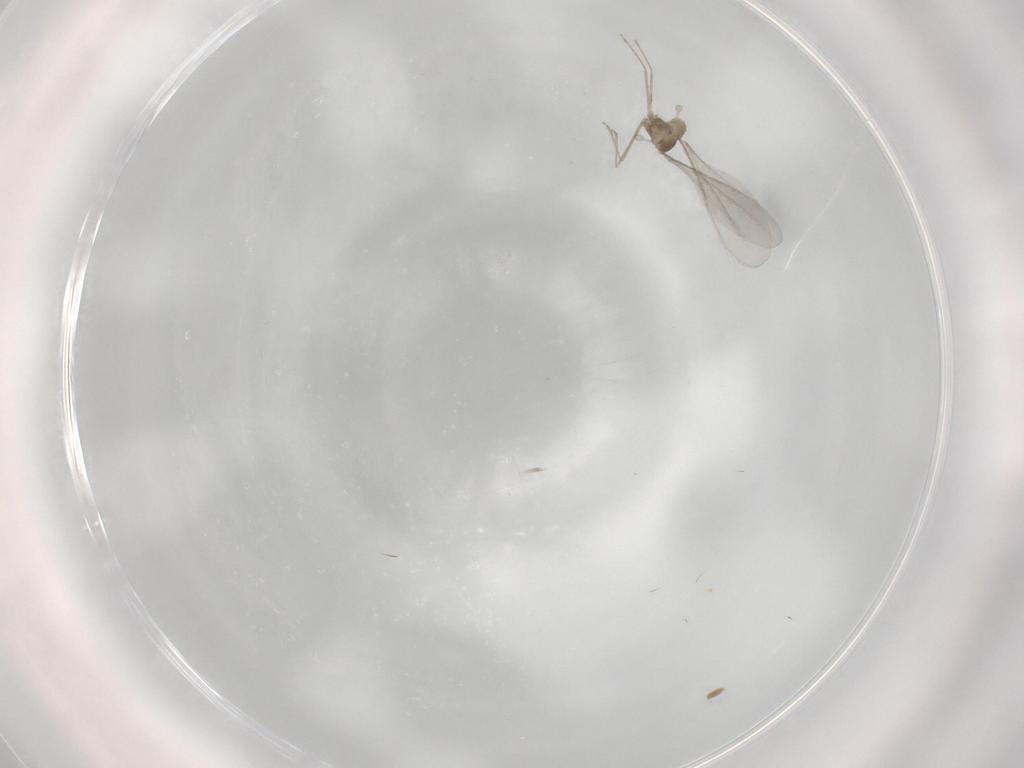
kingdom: Animalia
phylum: Arthropoda
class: Insecta
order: Diptera
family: Cecidomyiidae
